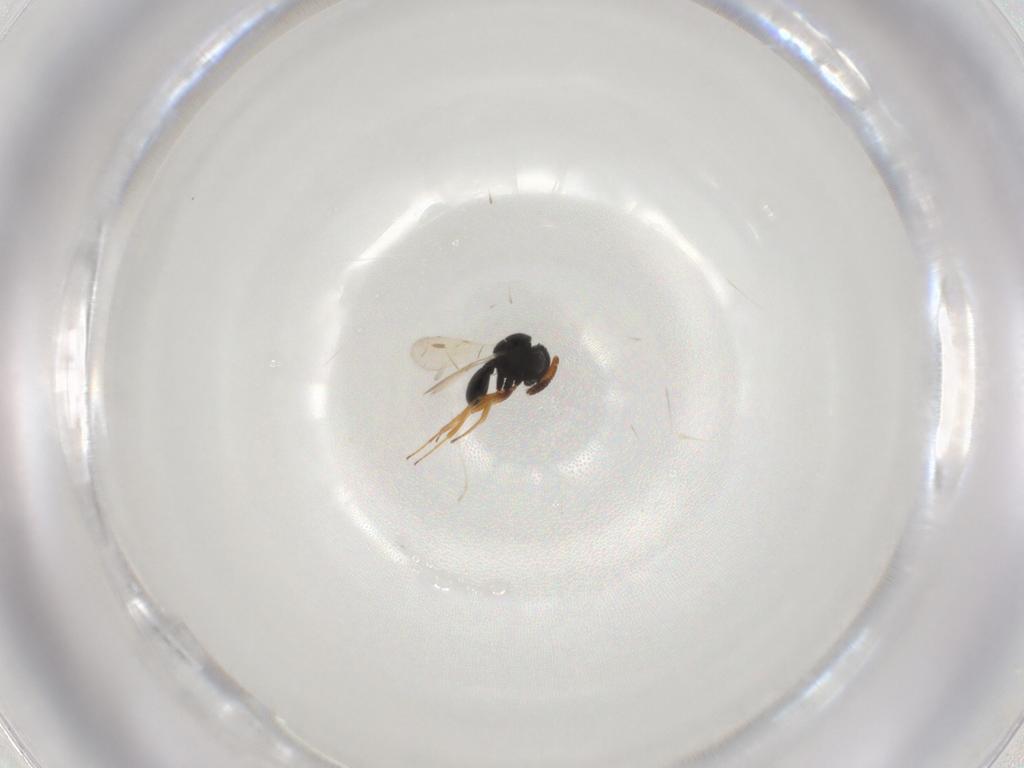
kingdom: Animalia
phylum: Arthropoda
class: Insecta
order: Hymenoptera
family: Scelionidae
